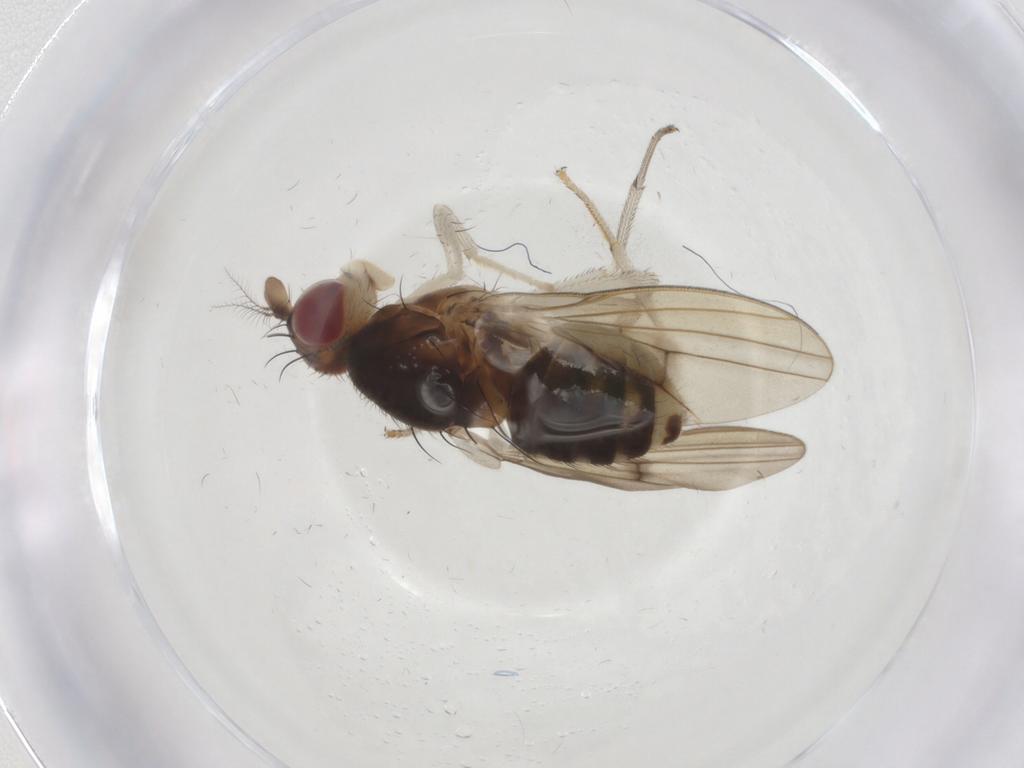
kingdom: Animalia
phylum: Arthropoda
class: Insecta
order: Diptera
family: Lauxaniidae
